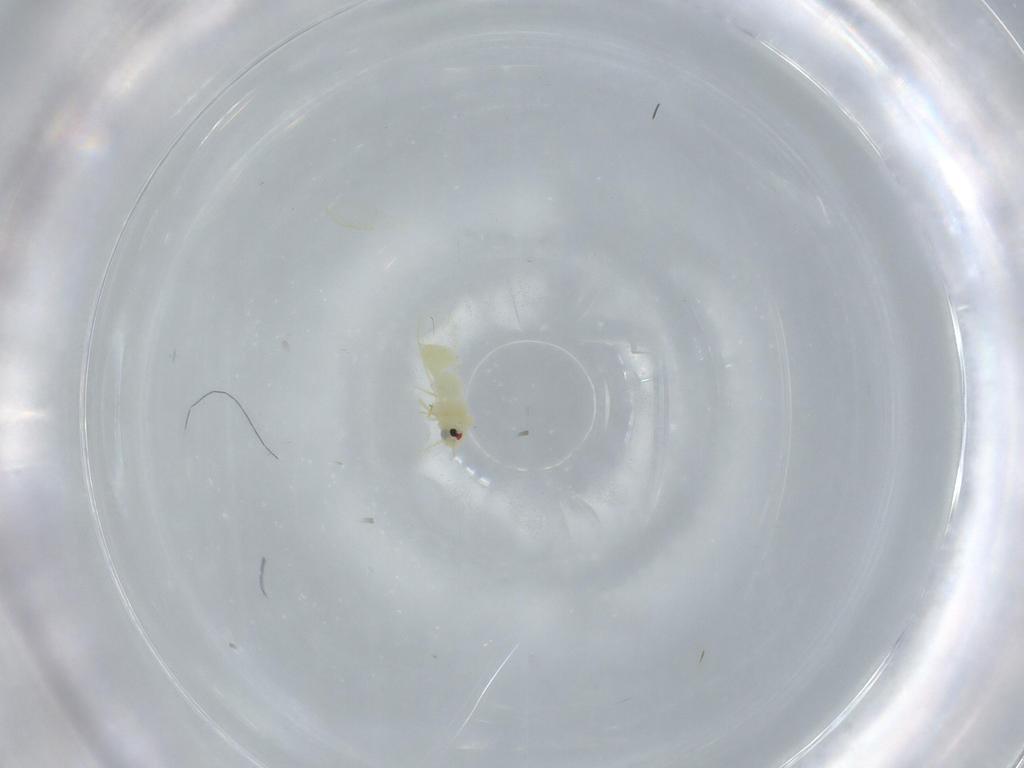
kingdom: Animalia
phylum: Arthropoda
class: Insecta
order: Hemiptera
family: Aleyrodidae
